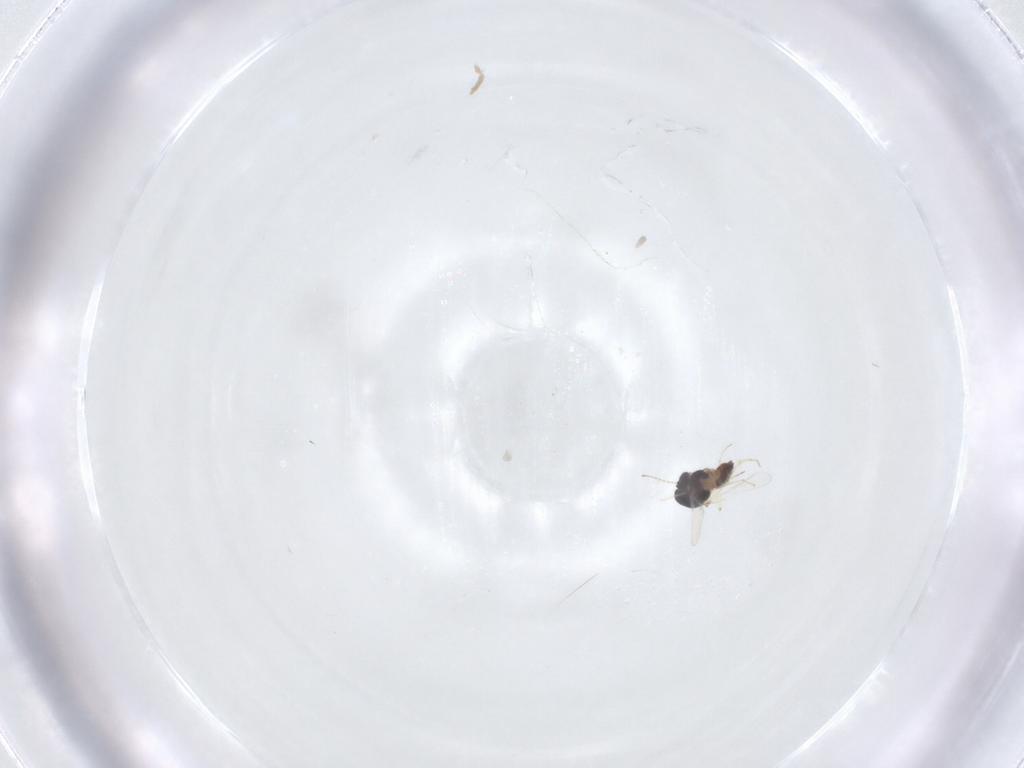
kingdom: Animalia
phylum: Arthropoda
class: Insecta
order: Diptera
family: Chironomidae
